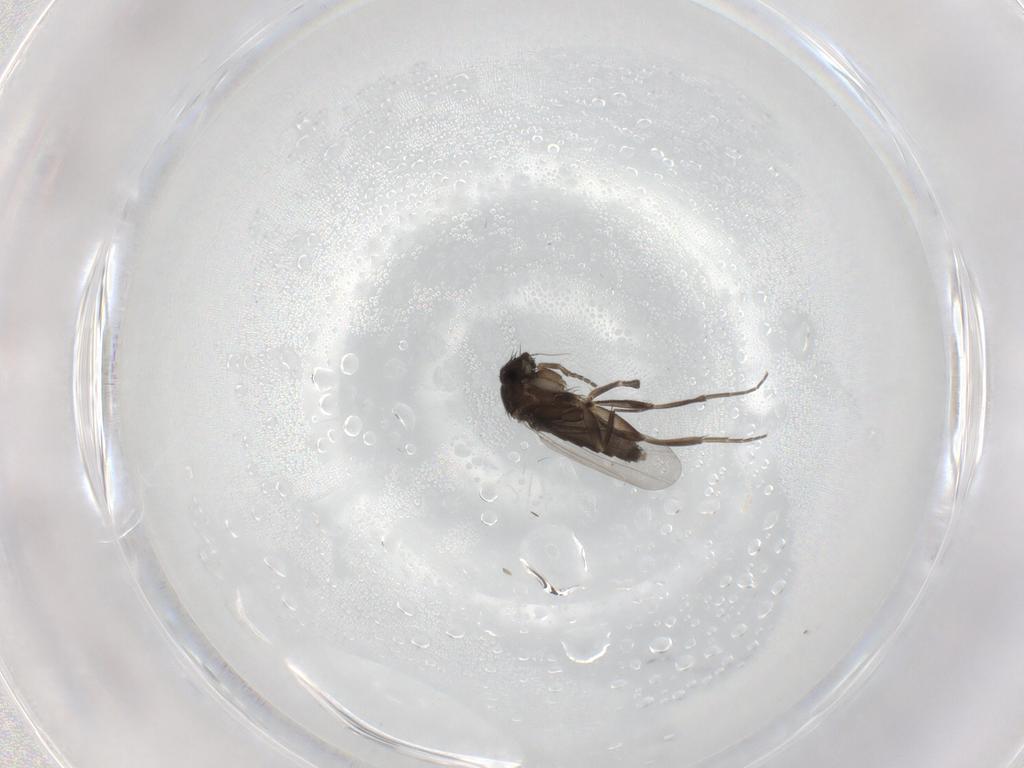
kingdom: Animalia
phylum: Arthropoda
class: Insecta
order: Diptera
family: Phoridae
